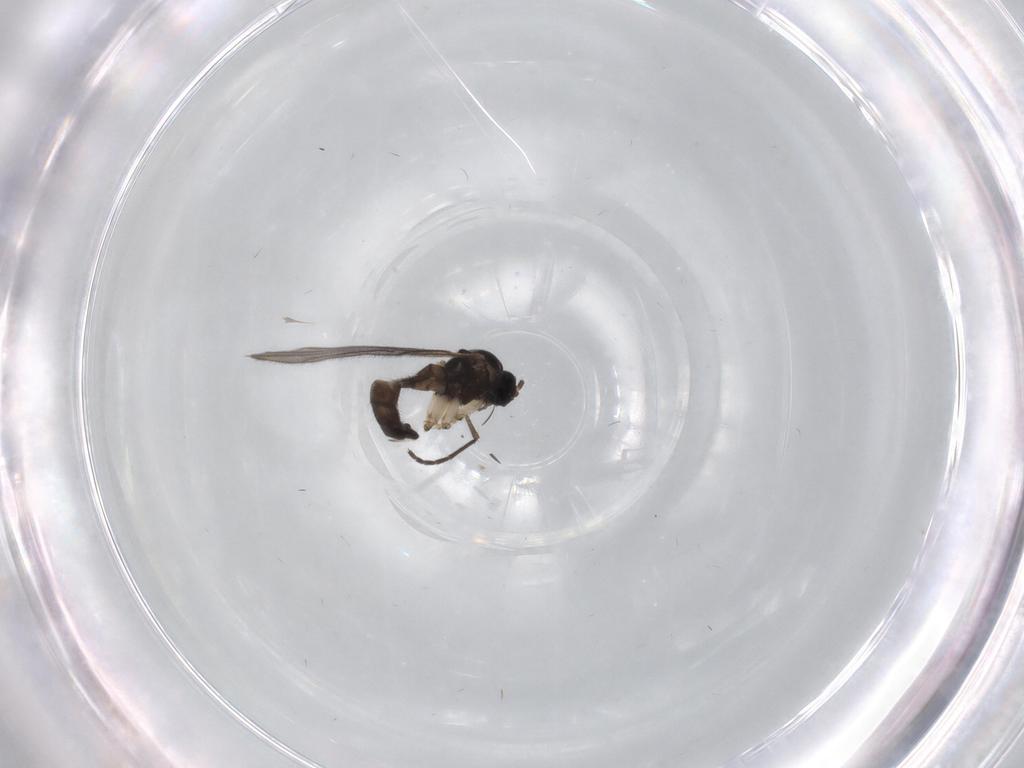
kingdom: Animalia
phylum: Arthropoda
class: Insecta
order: Diptera
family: Sciaridae
